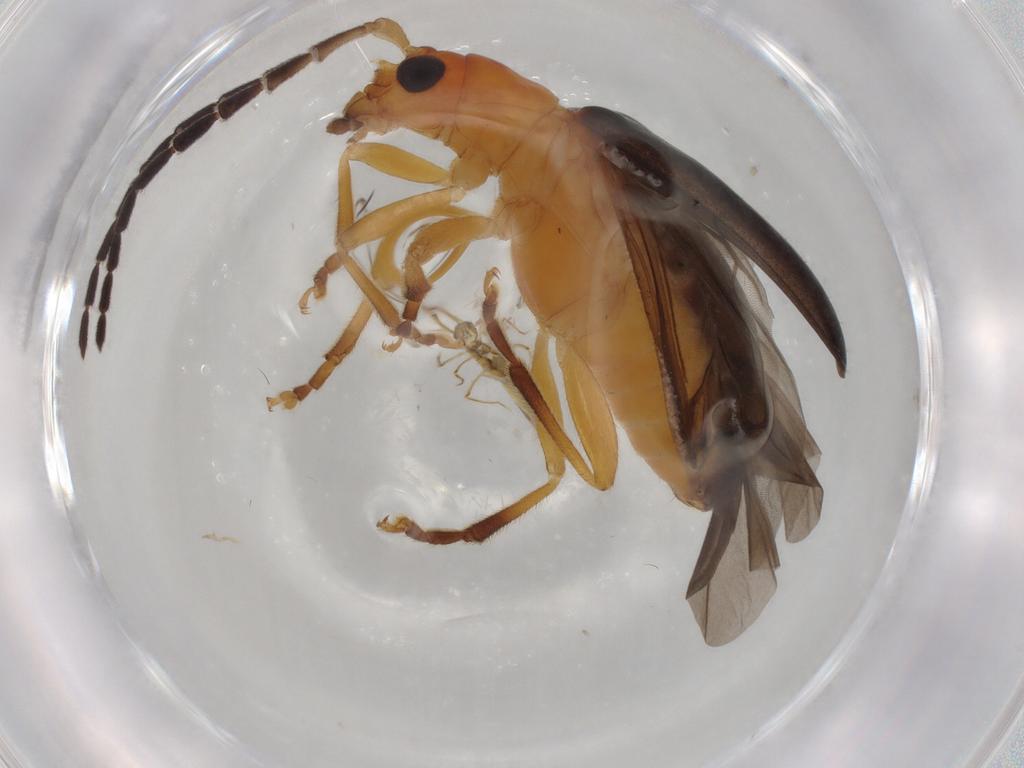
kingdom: Animalia
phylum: Arthropoda
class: Insecta
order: Coleoptera
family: Chrysomelidae
